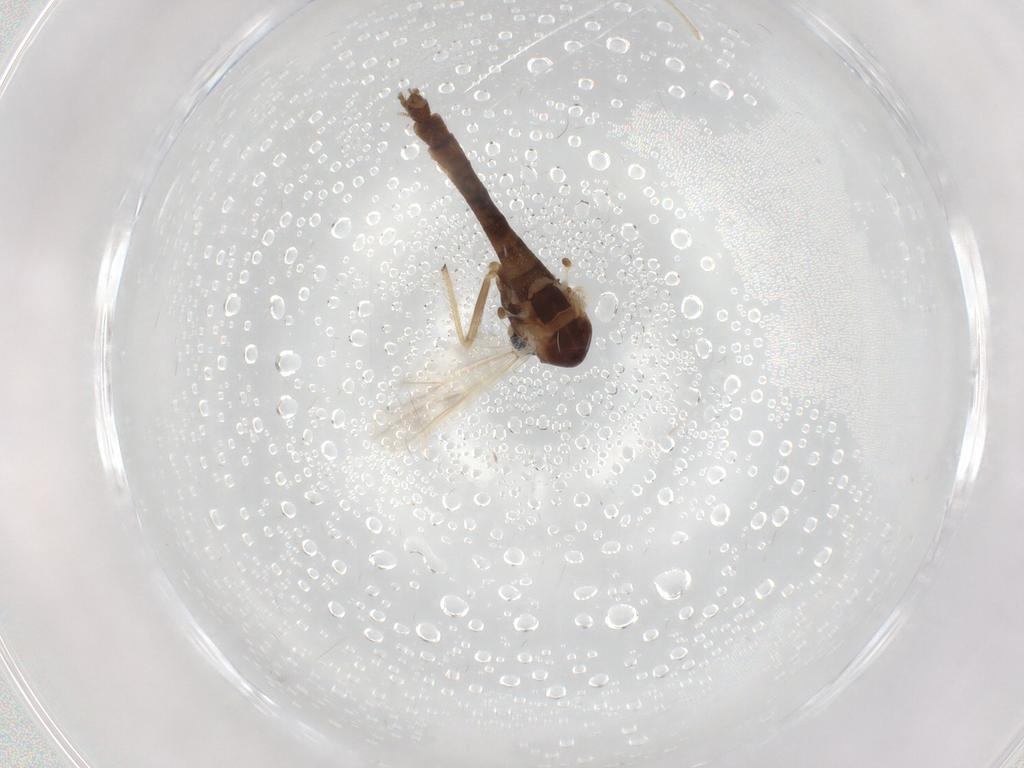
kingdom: Animalia
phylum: Arthropoda
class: Insecta
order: Diptera
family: Chironomidae
